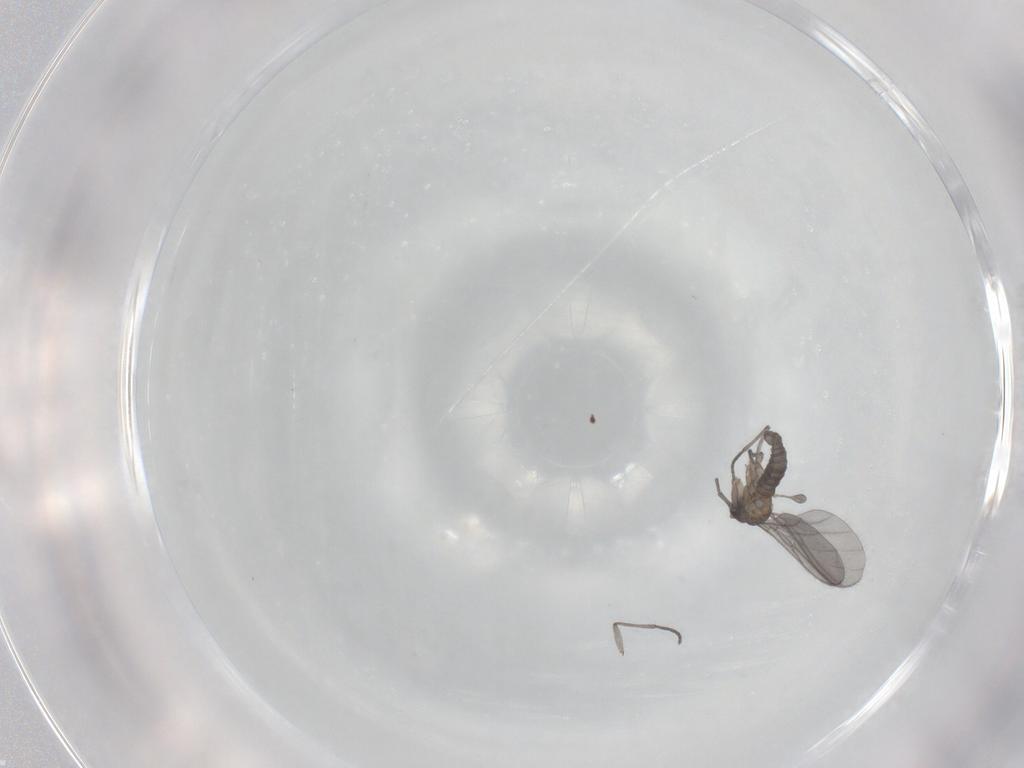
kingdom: Animalia
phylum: Arthropoda
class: Insecta
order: Diptera
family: Sciaridae
